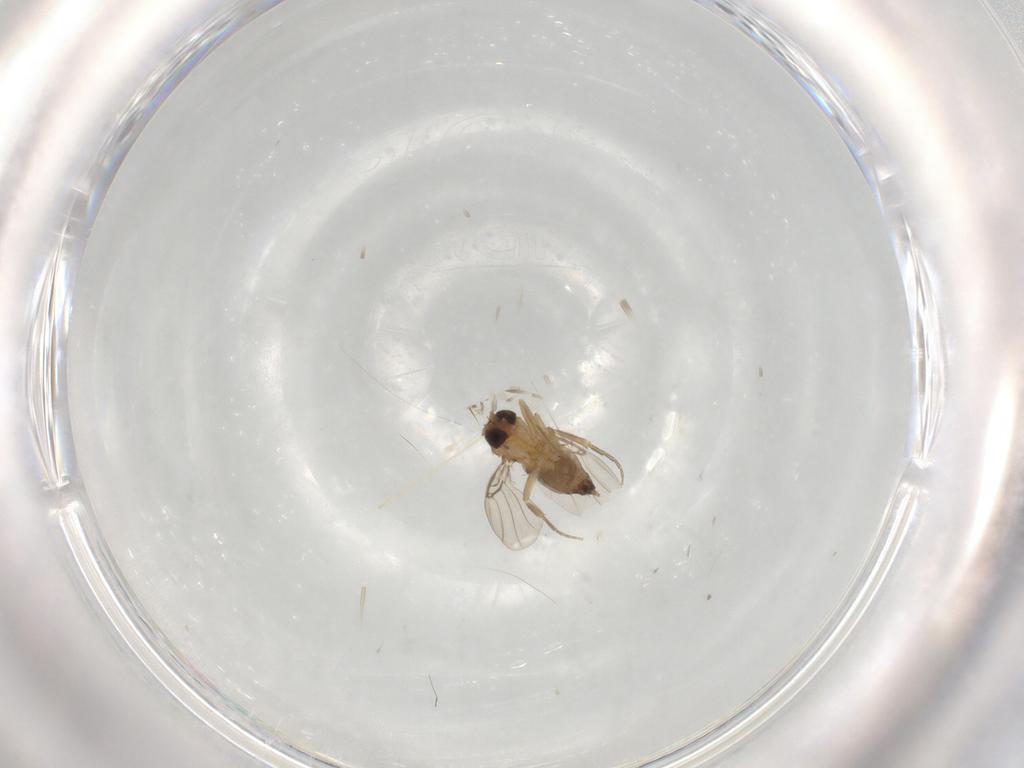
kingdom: Animalia
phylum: Arthropoda
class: Insecta
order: Diptera
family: Phoridae
